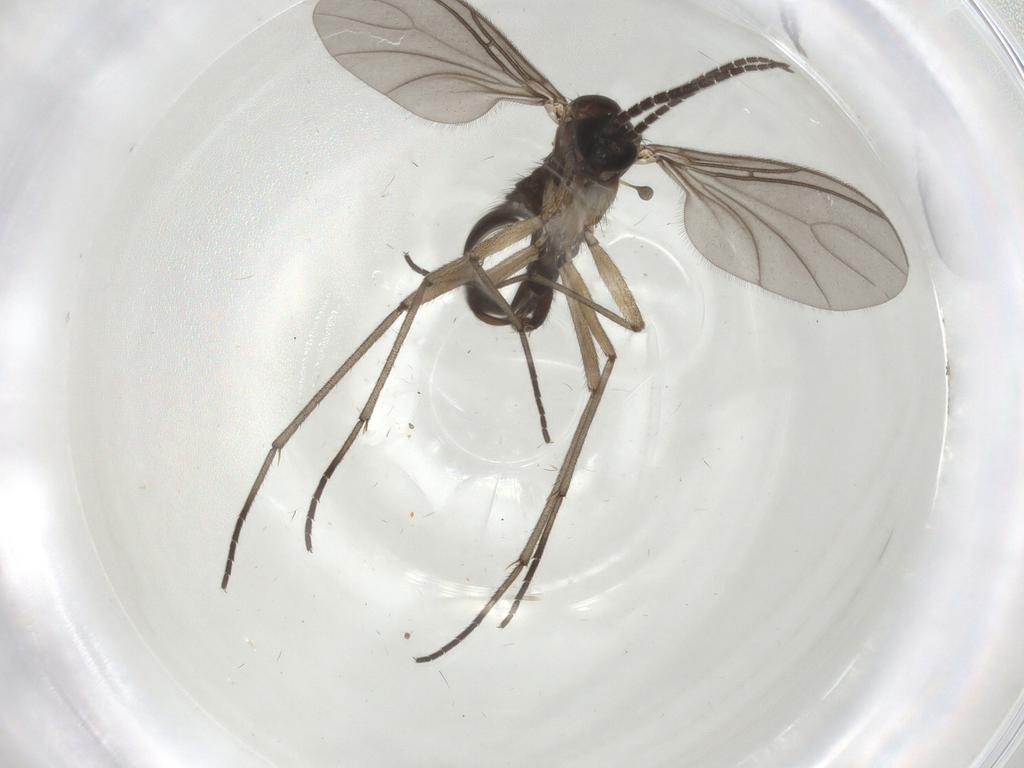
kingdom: Animalia
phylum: Arthropoda
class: Insecta
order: Diptera
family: Sciaridae
